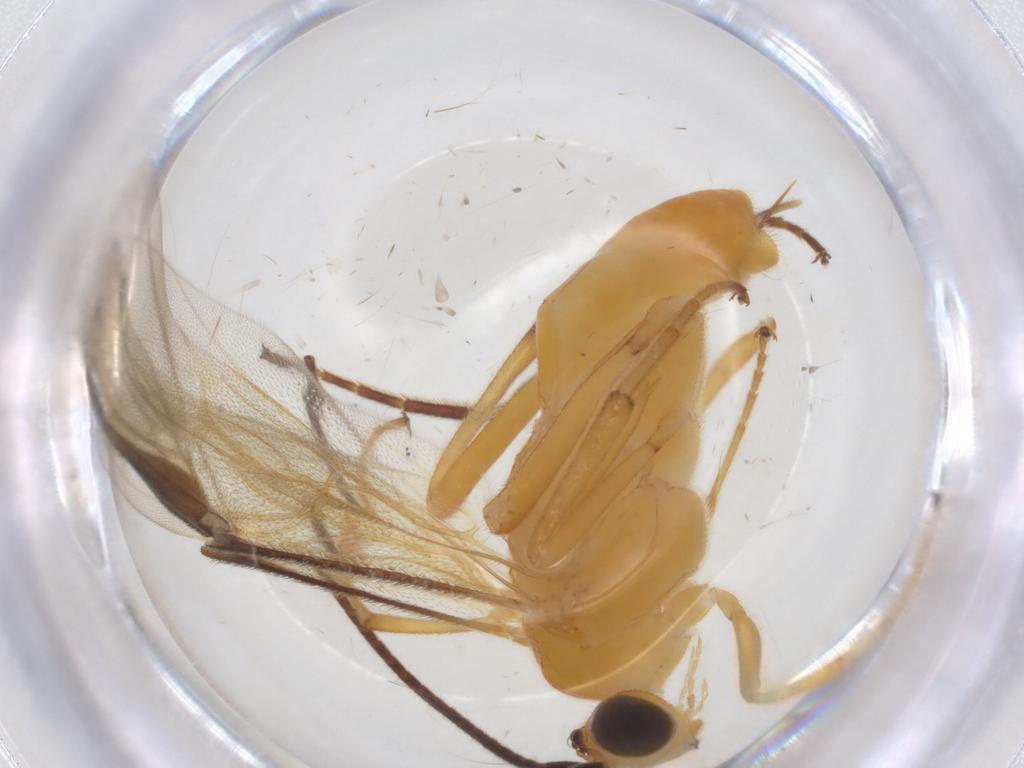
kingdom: Animalia
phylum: Arthropoda
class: Insecta
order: Hymenoptera
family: Braconidae
